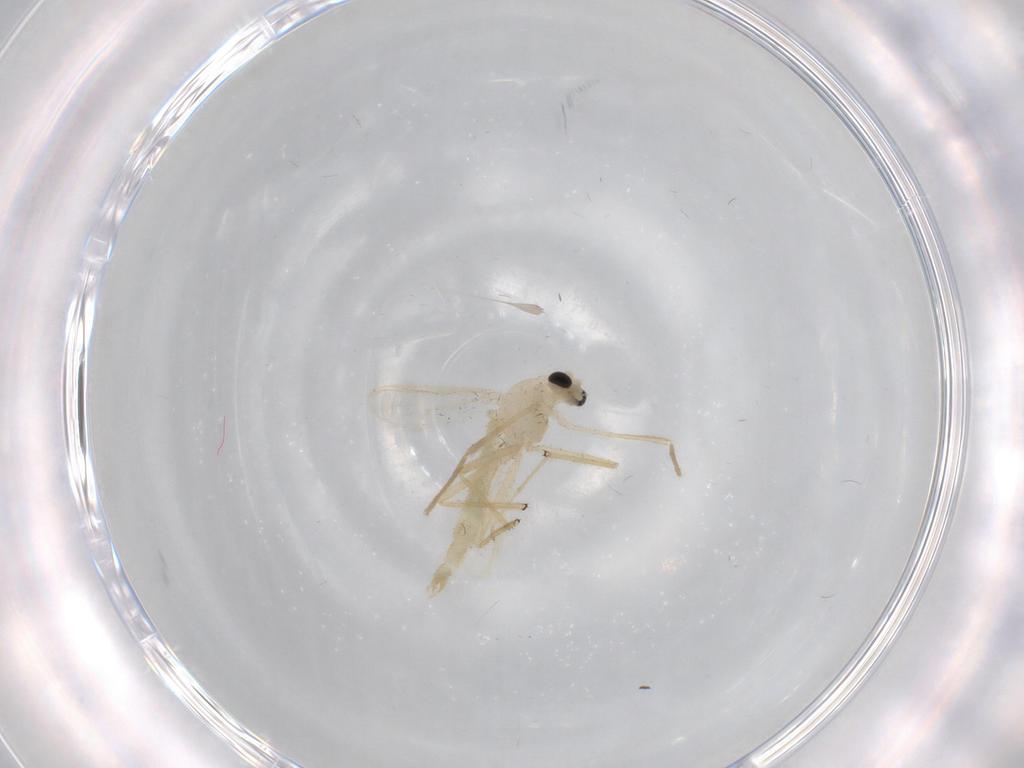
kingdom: Animalia
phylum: Arthropoda
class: Insecta
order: Diptera
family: Chironomidae
